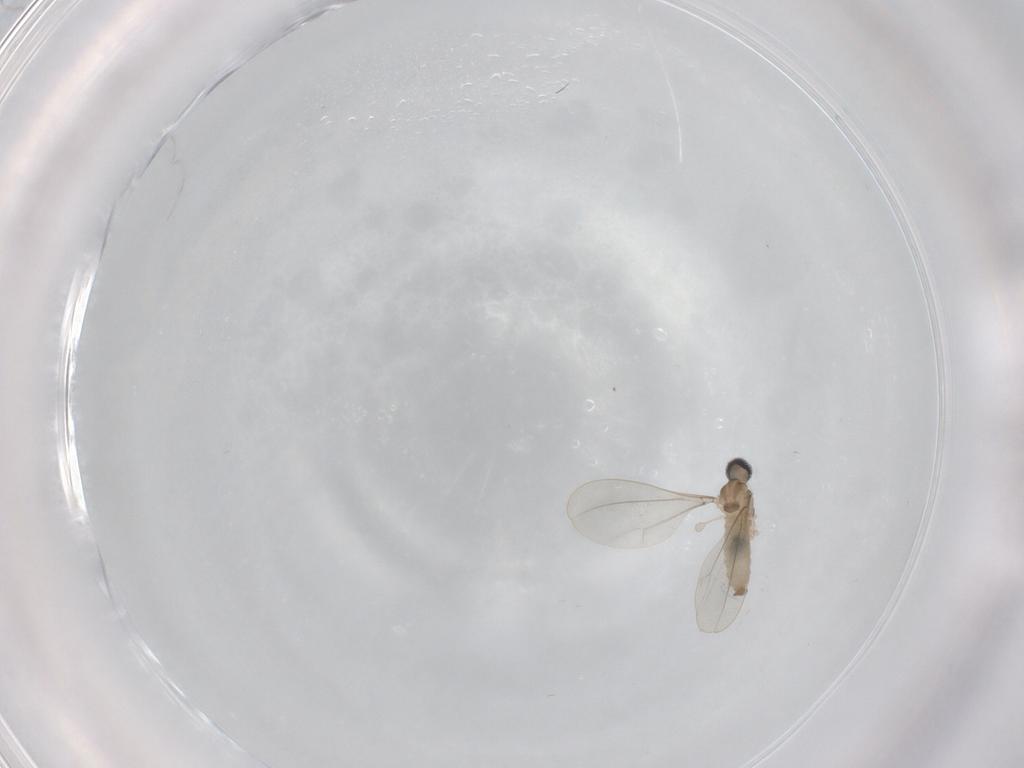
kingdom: Animalia
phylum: Arthropoda
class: Insecta
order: Diptera
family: Cecidomyiidae
